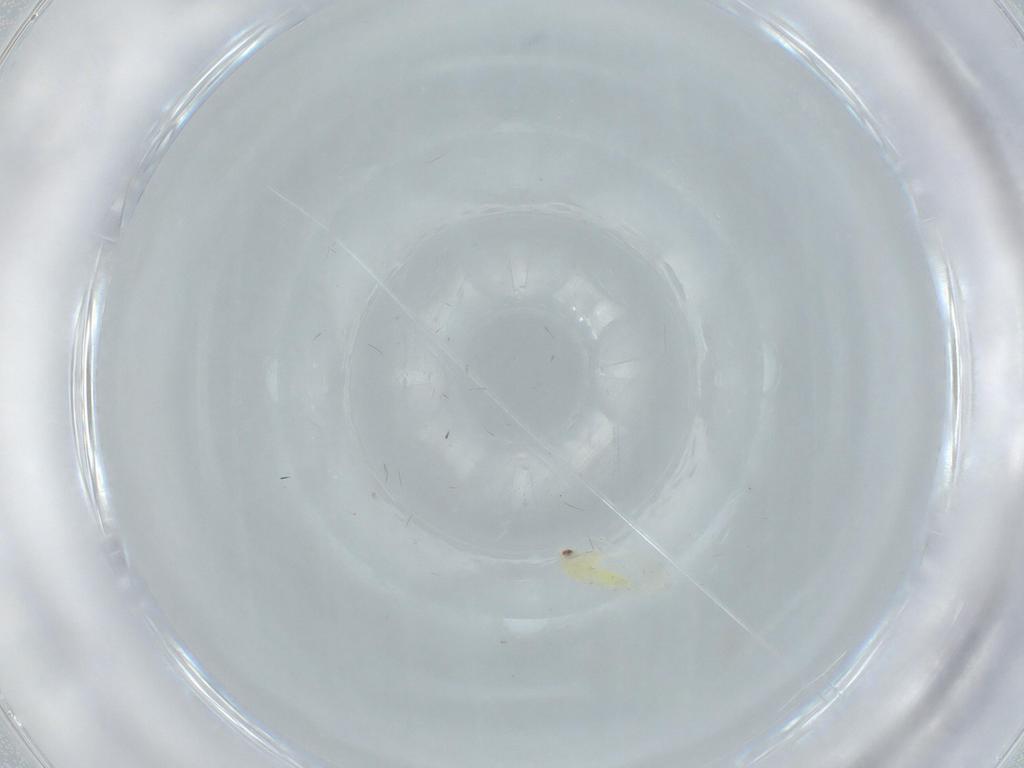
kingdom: Animalia
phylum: Arthropoda
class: Insecta
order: Hemiptera
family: Aleyrodidae
